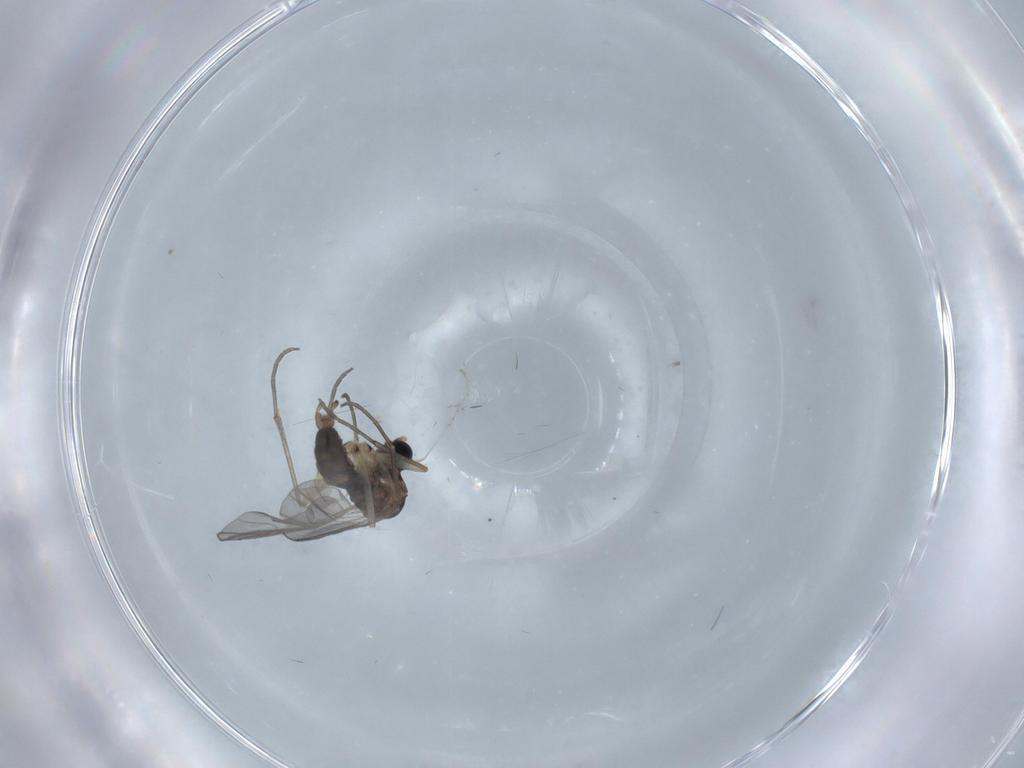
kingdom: Animalia
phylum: Arthropoda
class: Insecta
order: Diptera
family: Sciaridae
